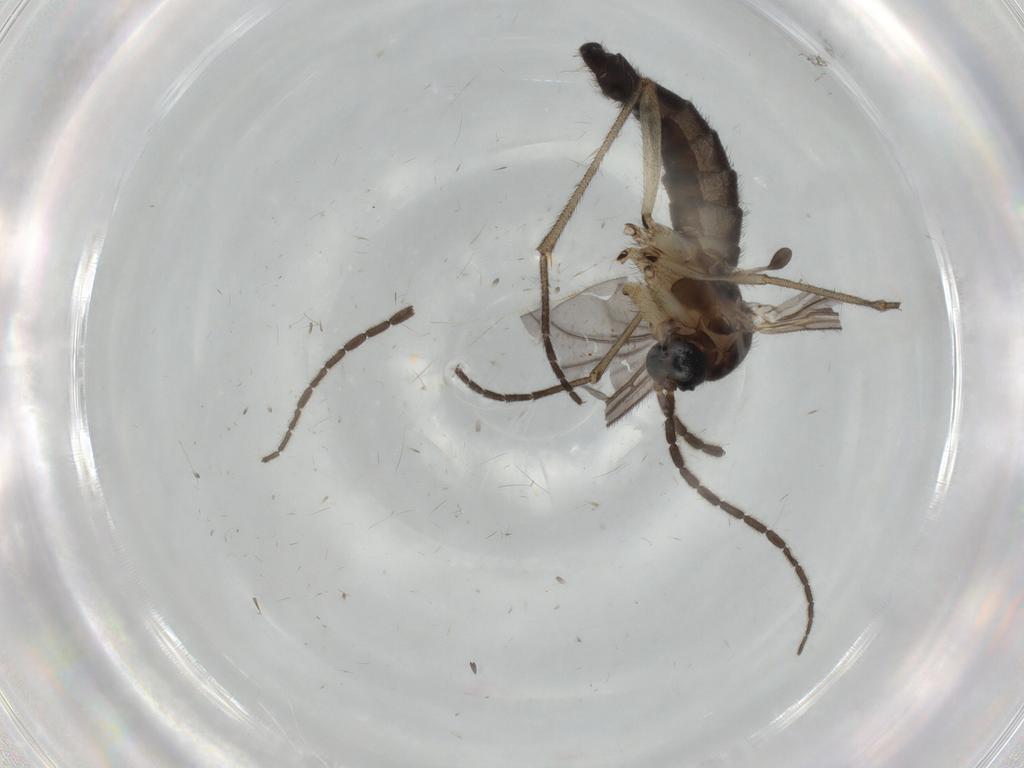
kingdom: Animalia
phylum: Arthropoda
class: Insecta
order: Diptera
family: Sciaridae
